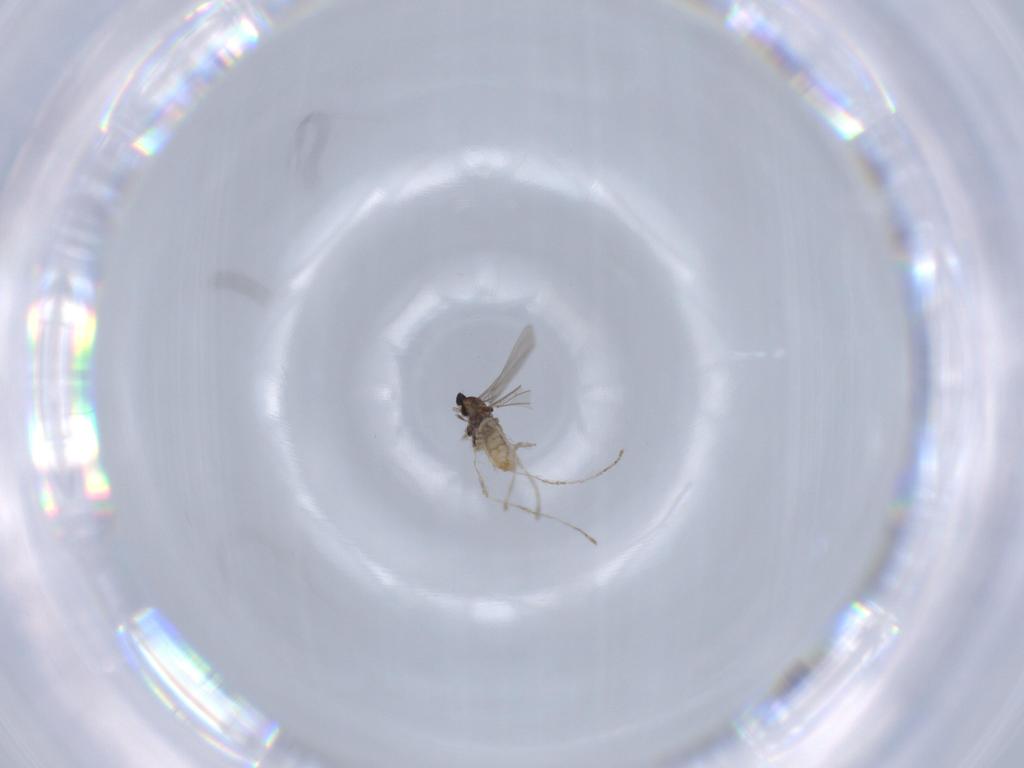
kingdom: Animalia
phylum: Arthropoda
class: Insecta
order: Diptera
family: Cecidomyiidae
